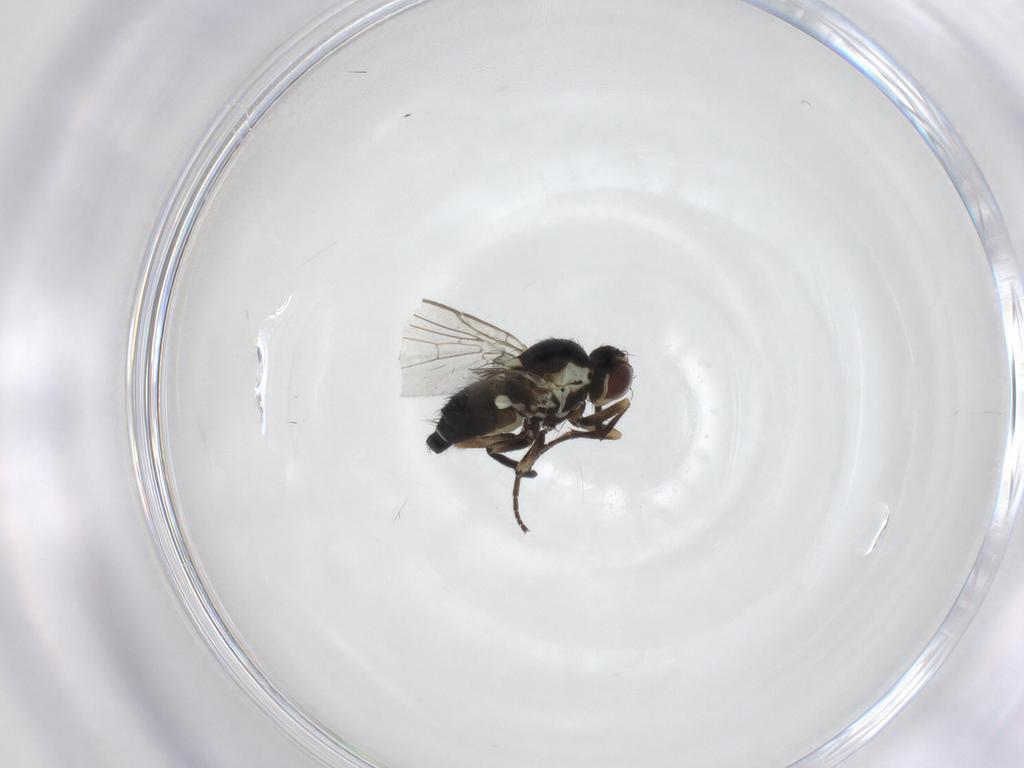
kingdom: Animalia
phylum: Arthropoda
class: Insecta
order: Diptera
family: Agromyzidae
